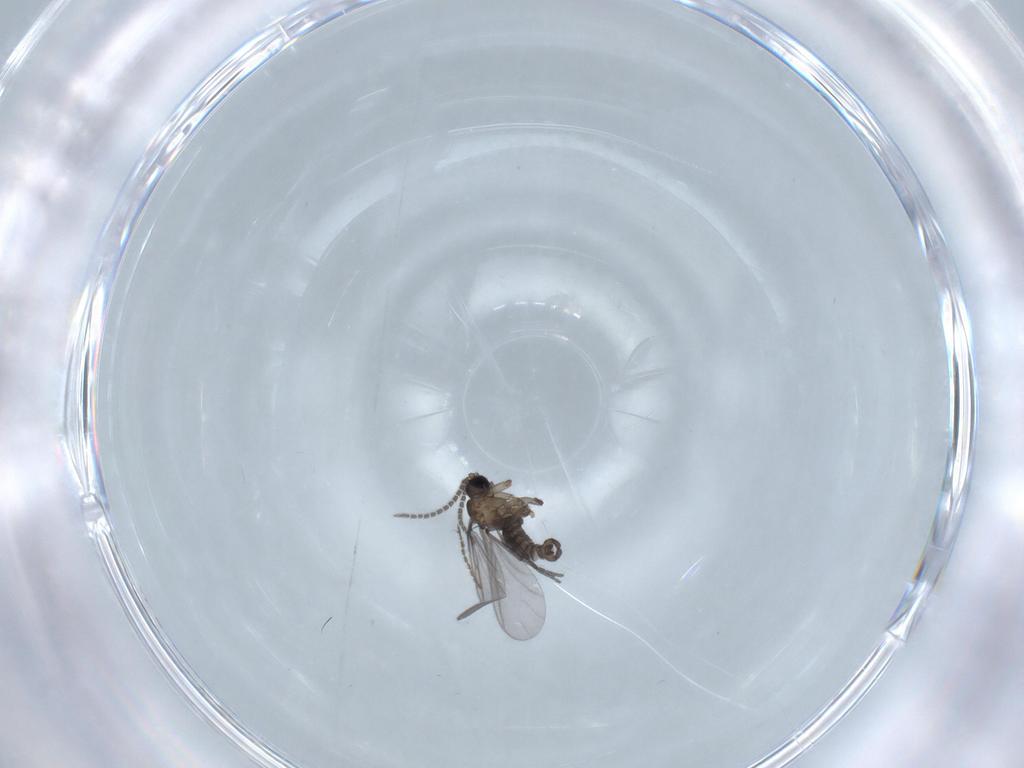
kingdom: Animalia
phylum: Arthropoda
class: Insecta
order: Diptera
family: Sciaridae
